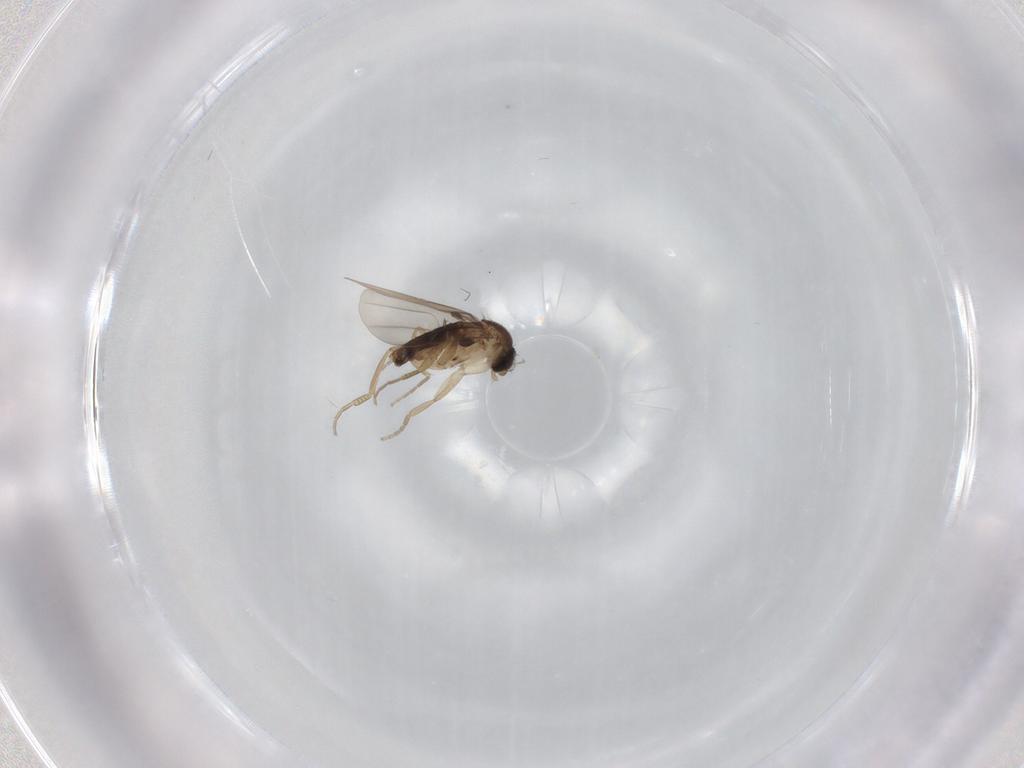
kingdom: Animalia
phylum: Arthropoda
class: Insecta
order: Diptera
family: Phoridae
